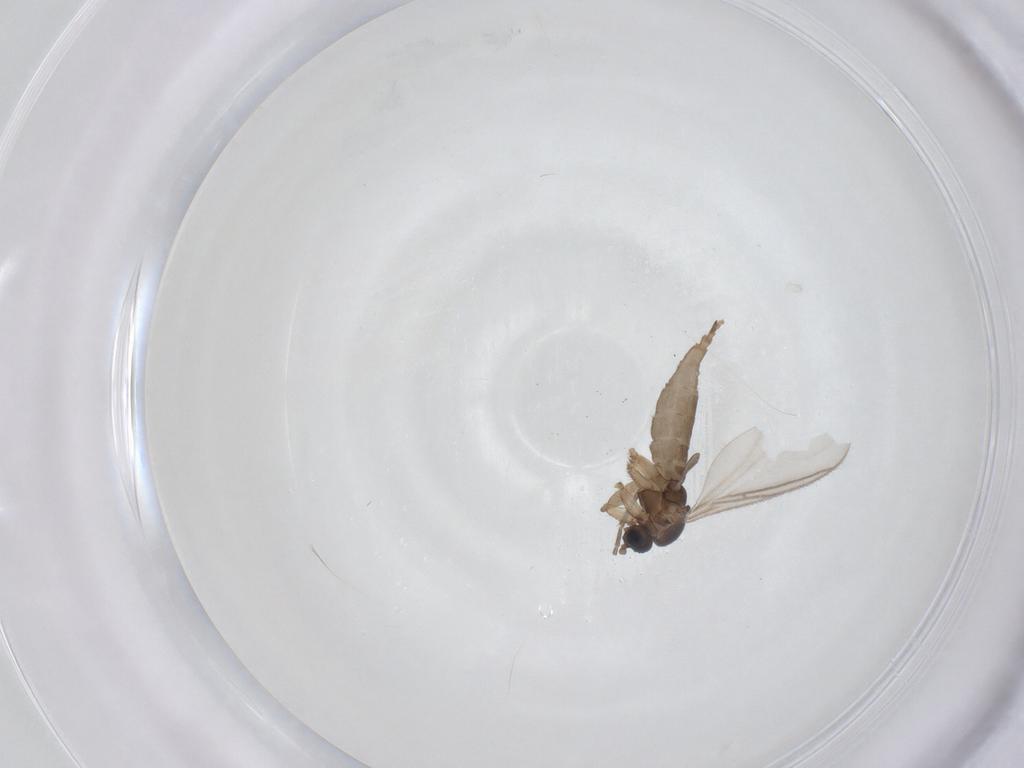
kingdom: Animalia
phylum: Arthropoda
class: Insecta
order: Diptera
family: Sciaridae
